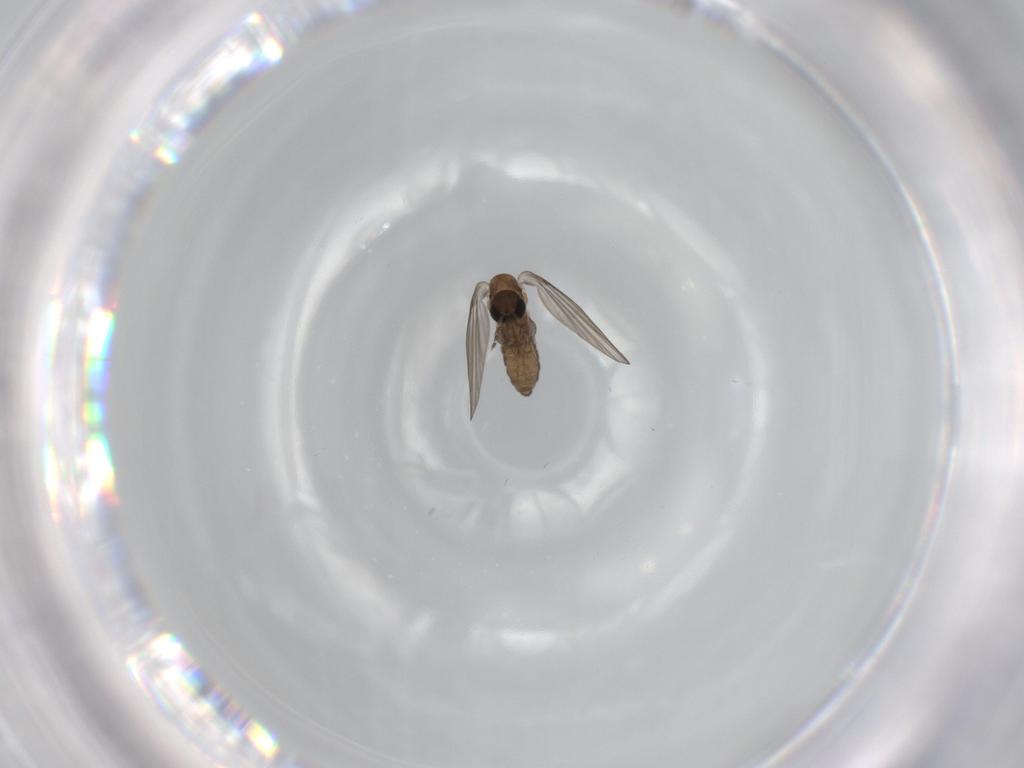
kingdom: Animalia
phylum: Arthropoda
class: Insecta
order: Diptera
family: Psychodidae
